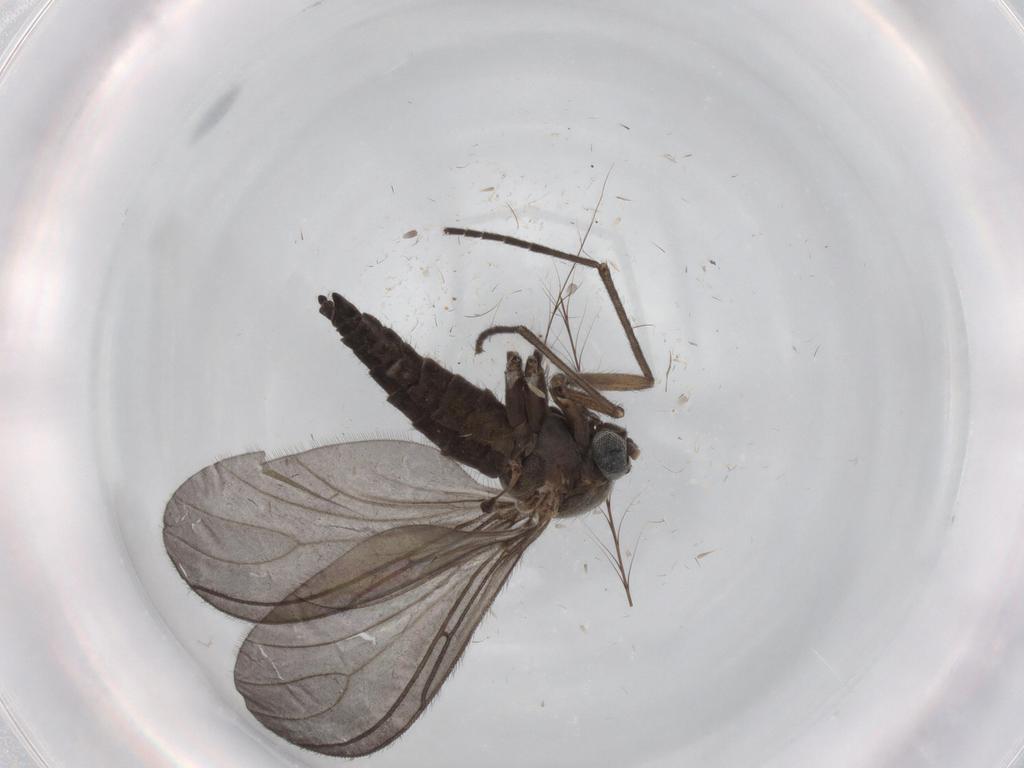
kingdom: Animalia
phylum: Arthropoda
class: Insecta
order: Diptera
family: Sciaridae
